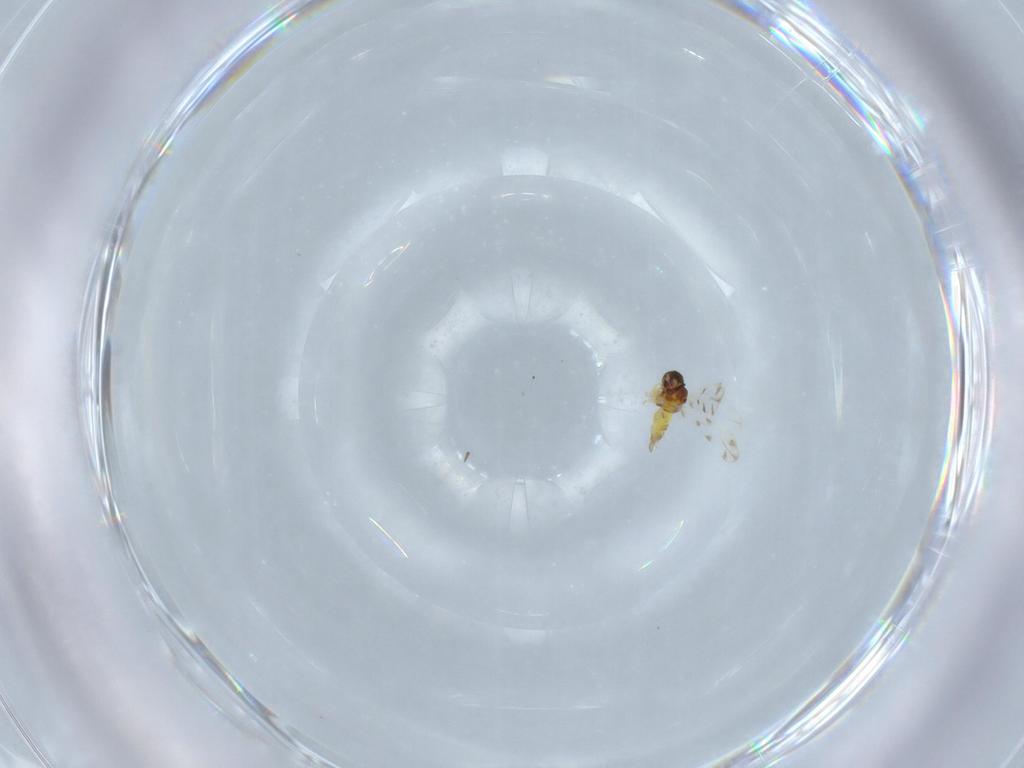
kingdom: Animalia
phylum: Arthropoda
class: Insecta
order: Hemiptera
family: Aleyrodidae
